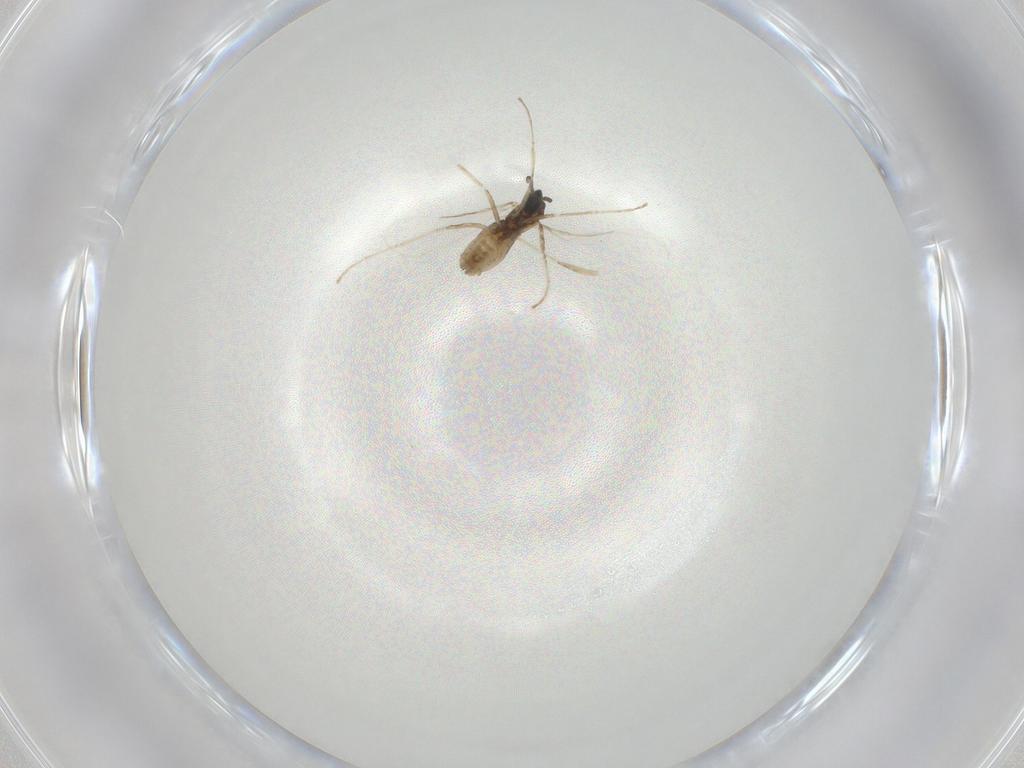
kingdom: Animalia
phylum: Arthropoda
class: Insecta
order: Diptera
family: Cecidomyiidae
